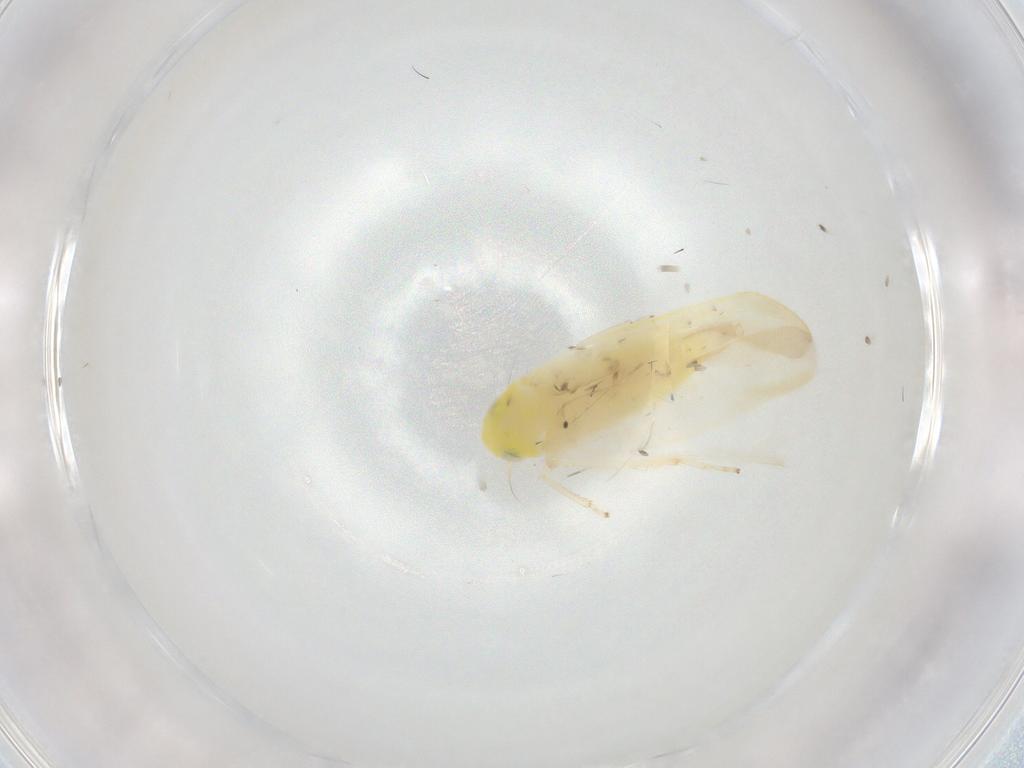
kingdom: Animalia
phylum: Arthropoda
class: Insecta
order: Hemiptera
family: Cicadellidae
